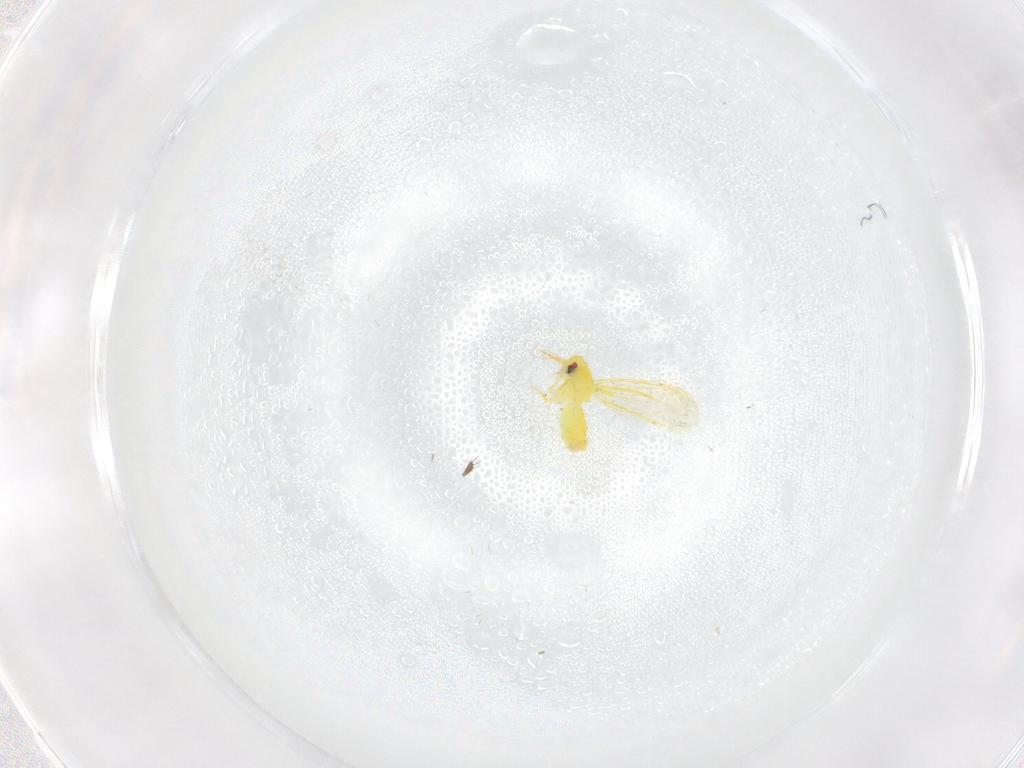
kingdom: Animalia
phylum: Arthropoda
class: Insecta
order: Hemiptera
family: Aleyrodidae
